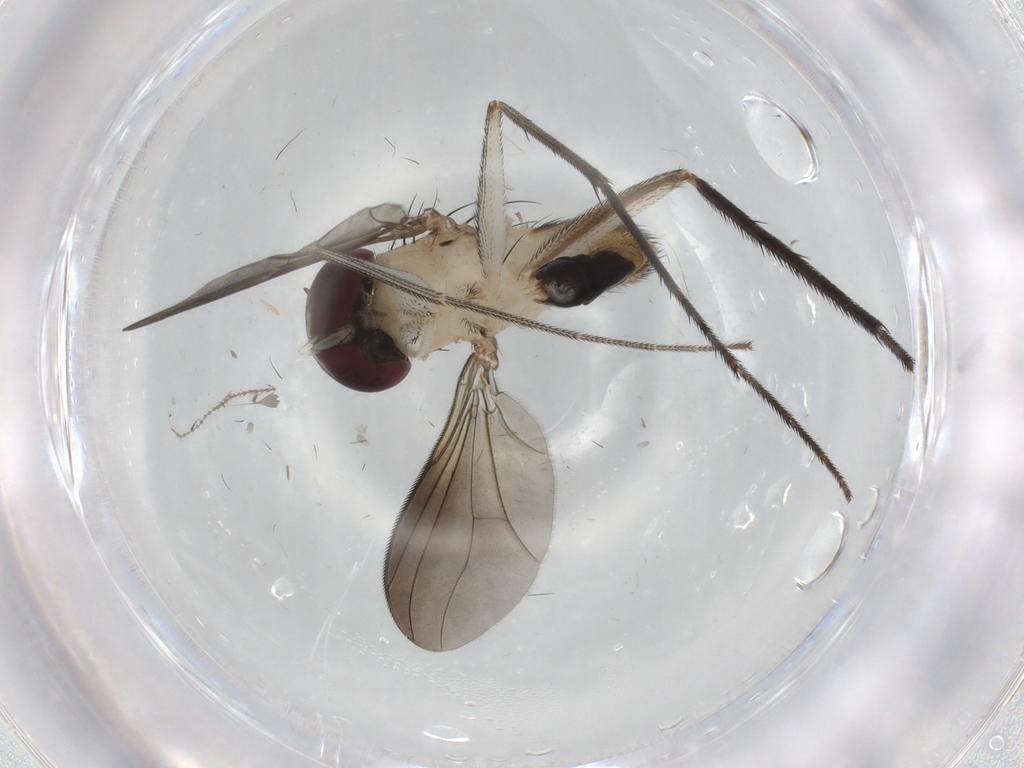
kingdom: Animalia
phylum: Arthropoda
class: Insecta
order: Diptera
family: Dolichopodidae
